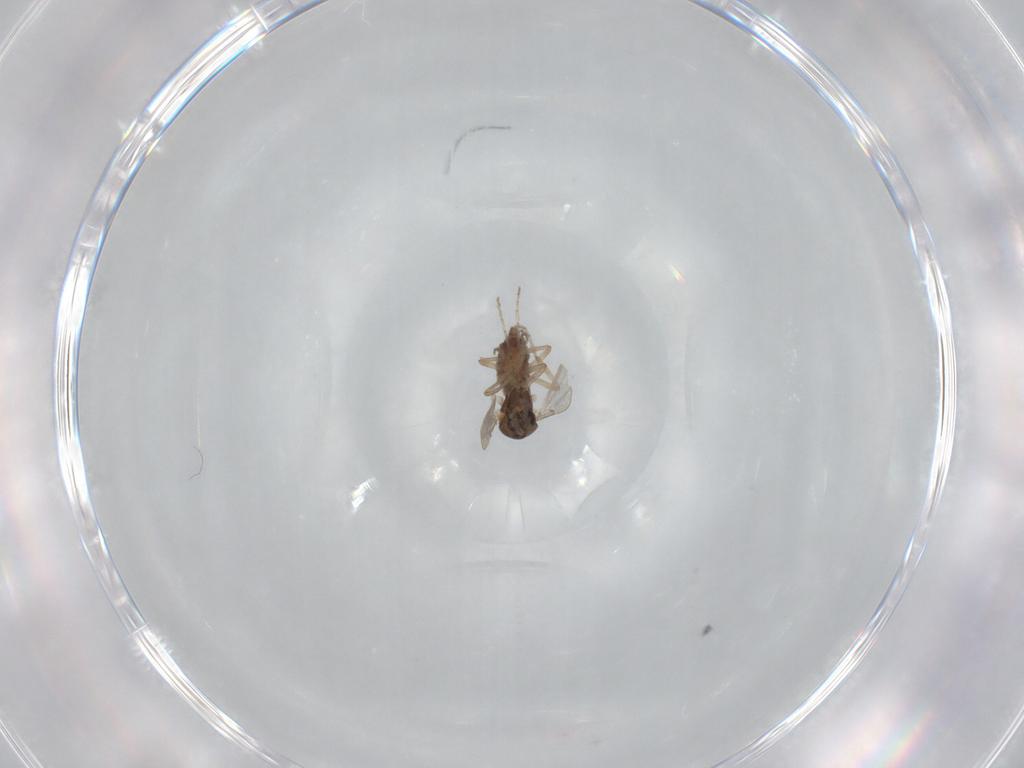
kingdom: Animalia
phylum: Arthropoda
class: Insecta
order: Diptera
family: Ceratopogonidae
